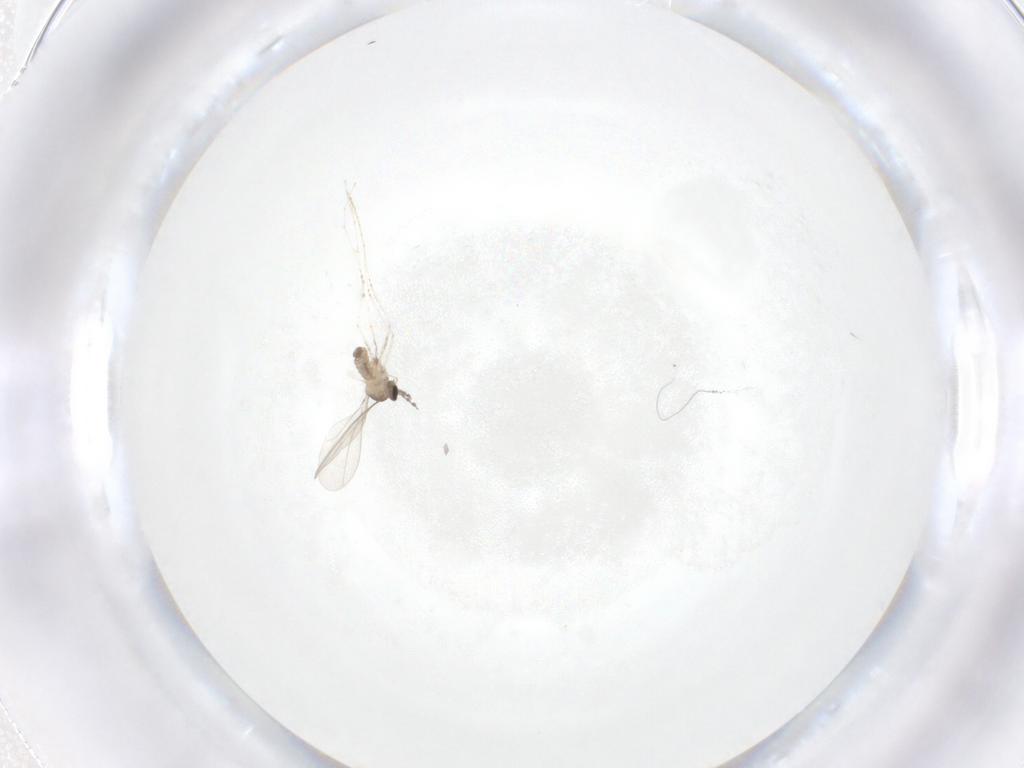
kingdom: Animalia
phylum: Arthropoda
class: Insecta
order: Diptera
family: Cecidomyiidae
